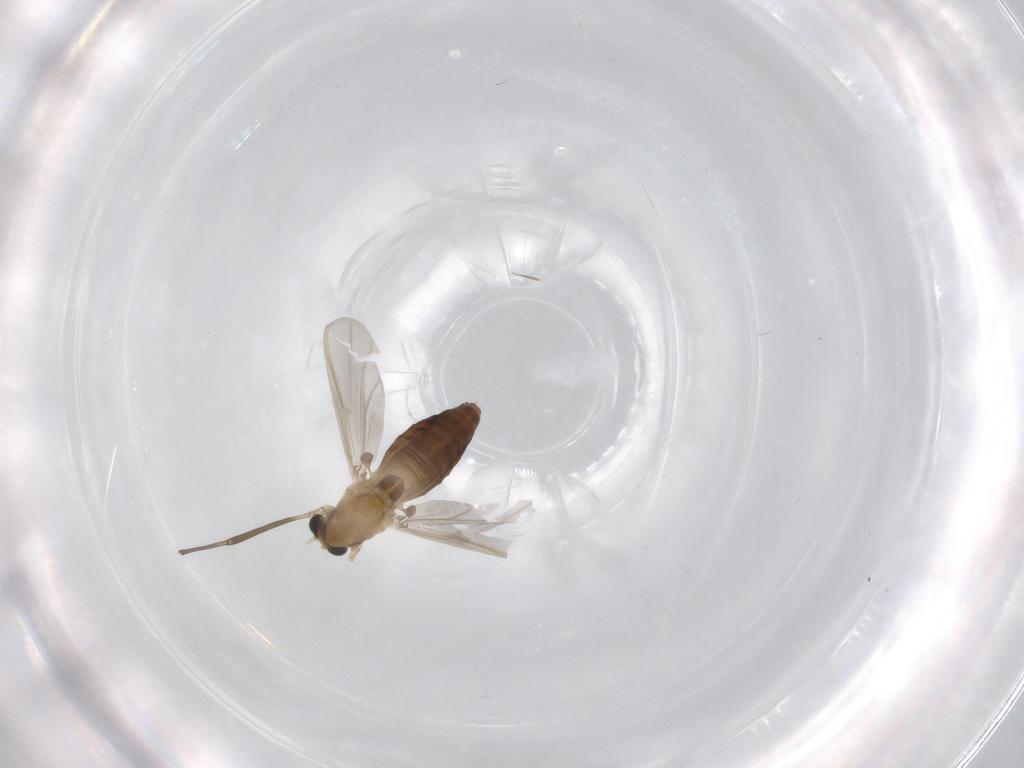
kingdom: Animalia
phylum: Arthropoda
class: Insecta
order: Diptera
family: Chironomidae
